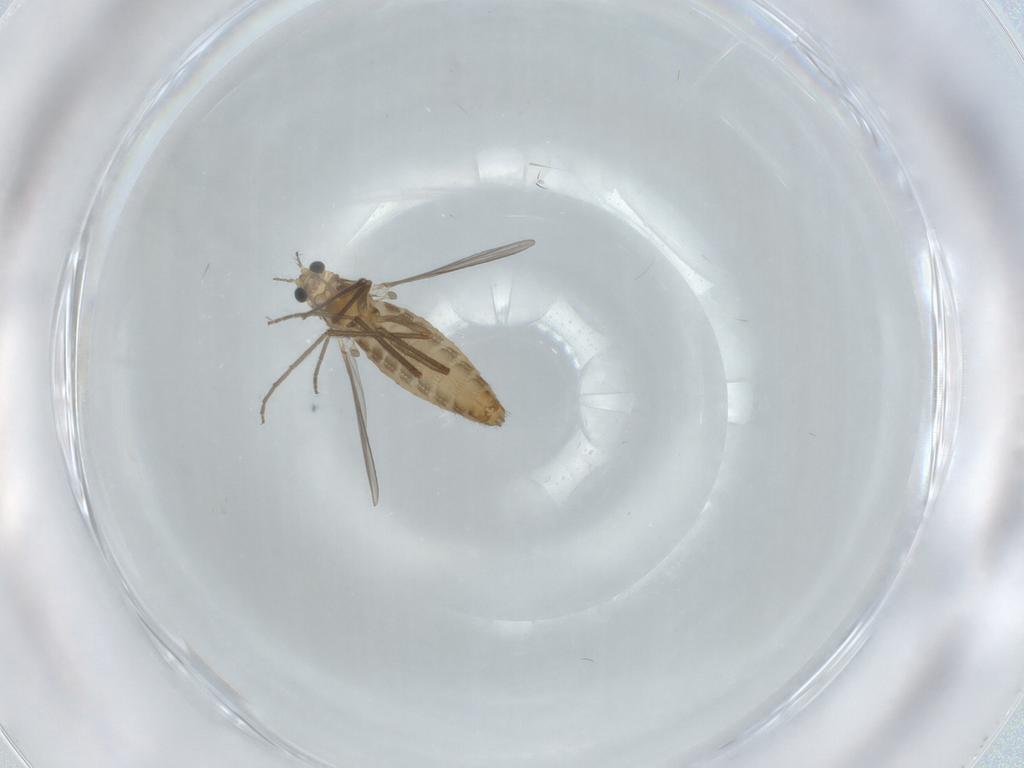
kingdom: Animalia
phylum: Arthropoda
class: Insecta
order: Diptera
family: Chironomidae
